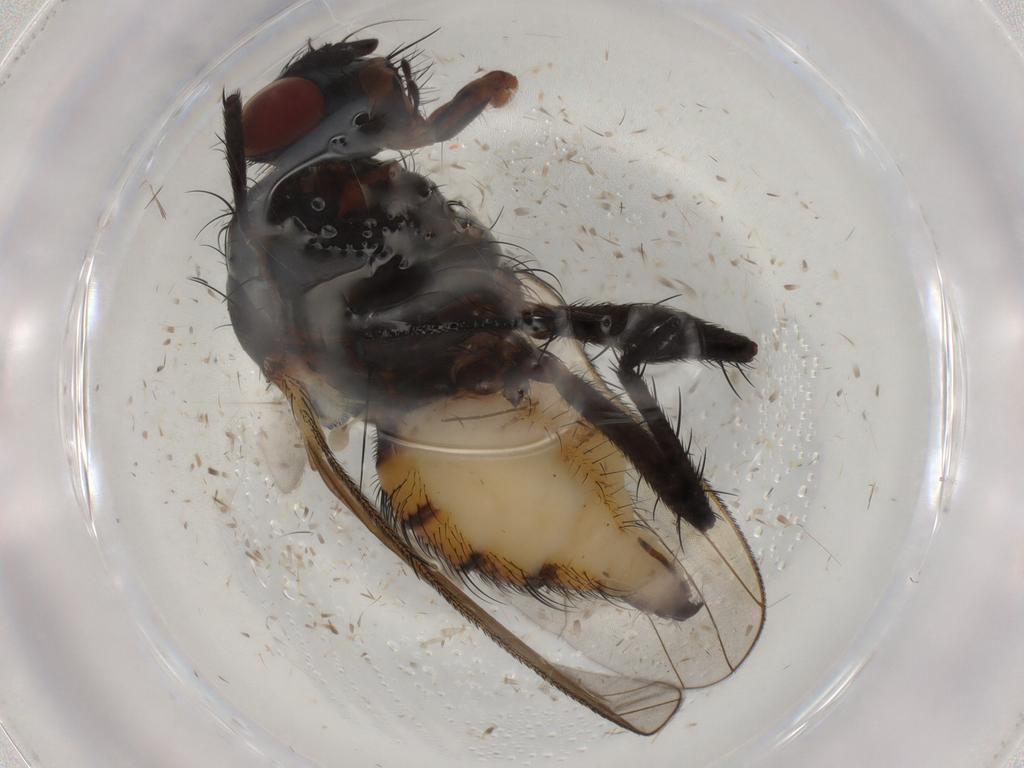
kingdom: Animalia
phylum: Arthropoda
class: Insecta
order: Diptera
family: Anthomyiidae
